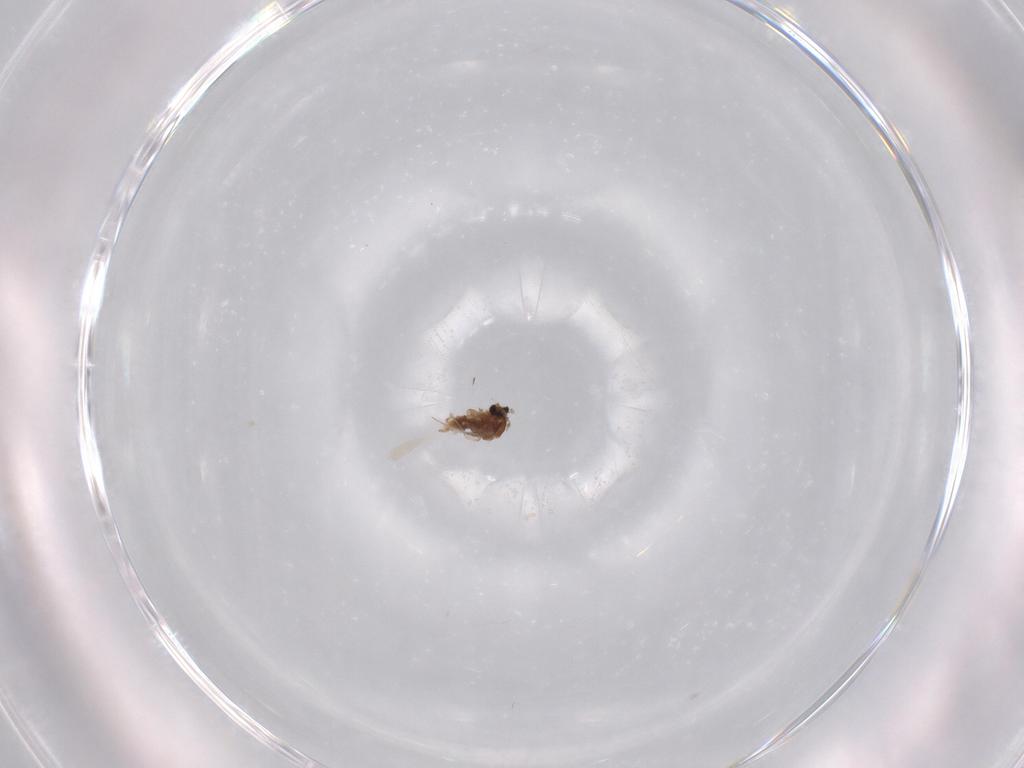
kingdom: Animalia
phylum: Arthropoda
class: Insecta
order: Diptera
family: Cecidomyiidae
